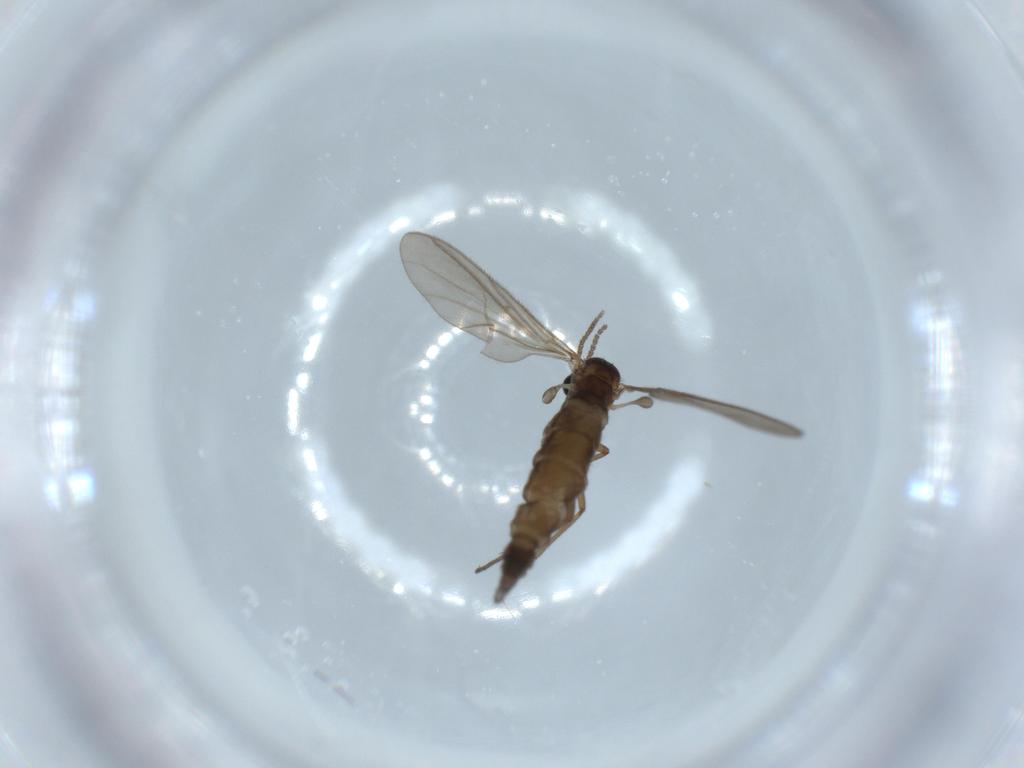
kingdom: Animalia
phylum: Arthropoda
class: Insecta
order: Diptera
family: Sciaridae
